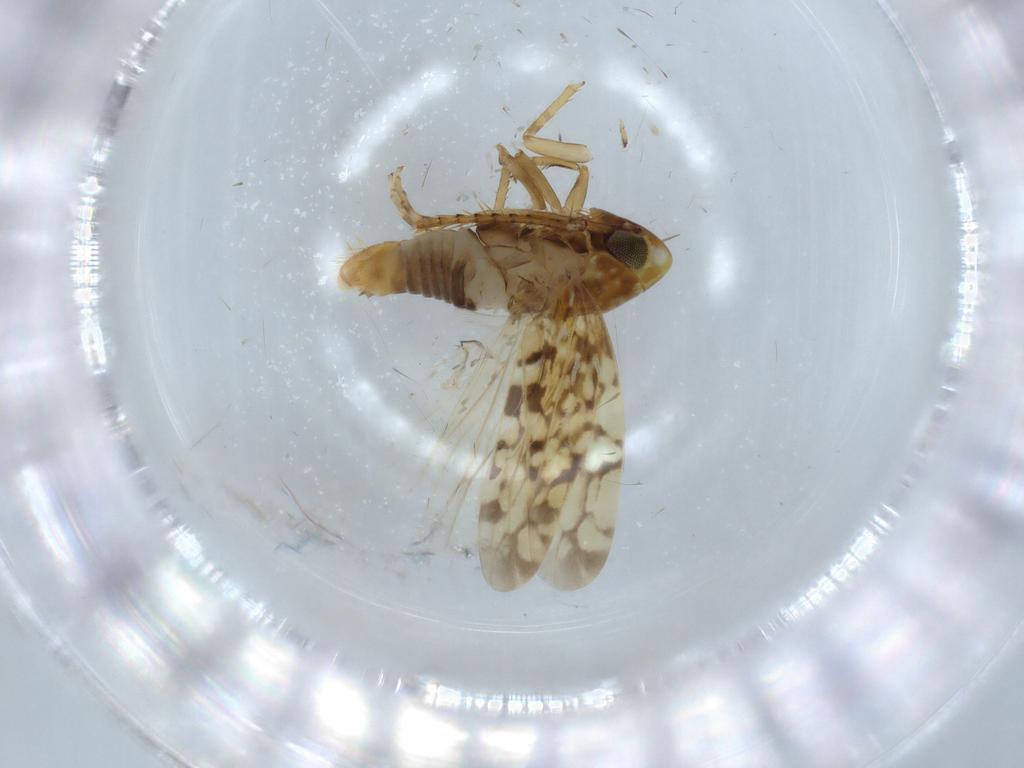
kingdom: Animalia
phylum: Arthropoda
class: Insecta
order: Hemiptera
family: Cicadellidae
